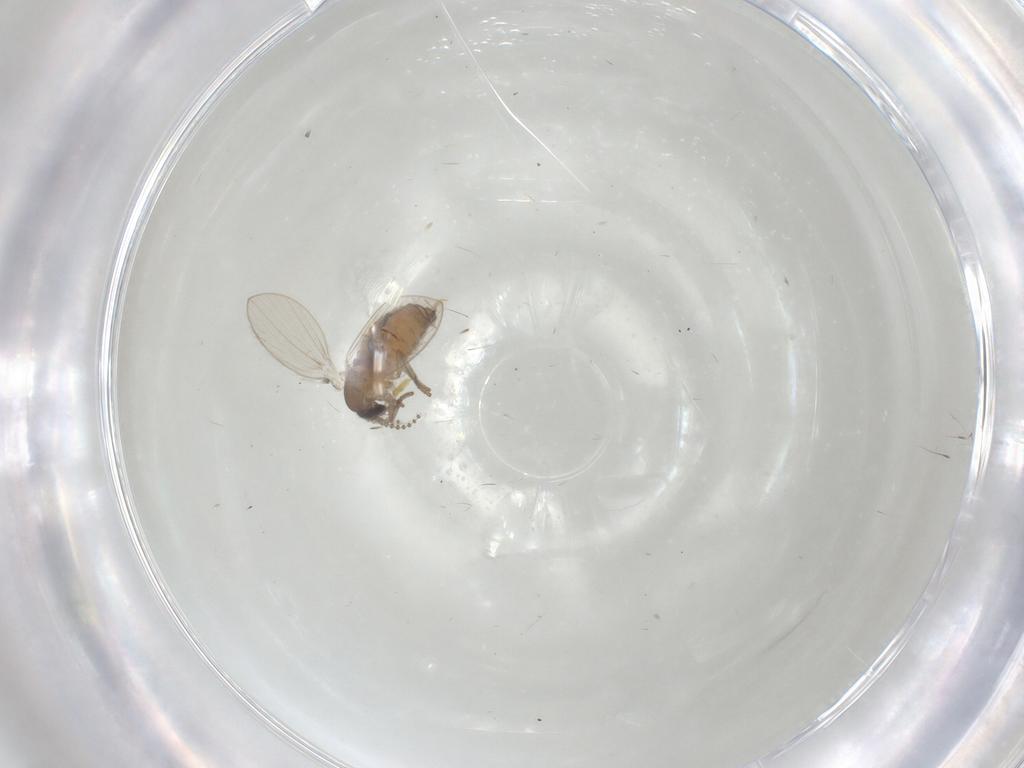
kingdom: Animalia
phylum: Arthropoda
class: Insecta
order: Diptera
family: Psychodidae
